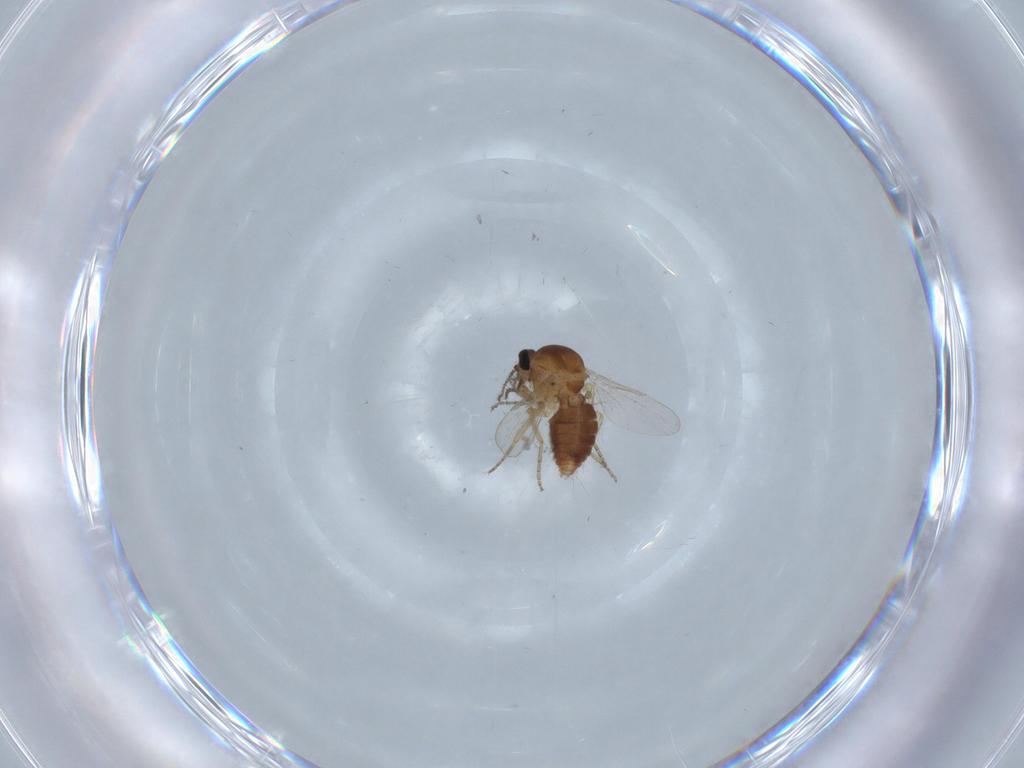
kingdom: Animalia
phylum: Arthropoda
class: Insecta
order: Diptera
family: Ceratopogonidae
